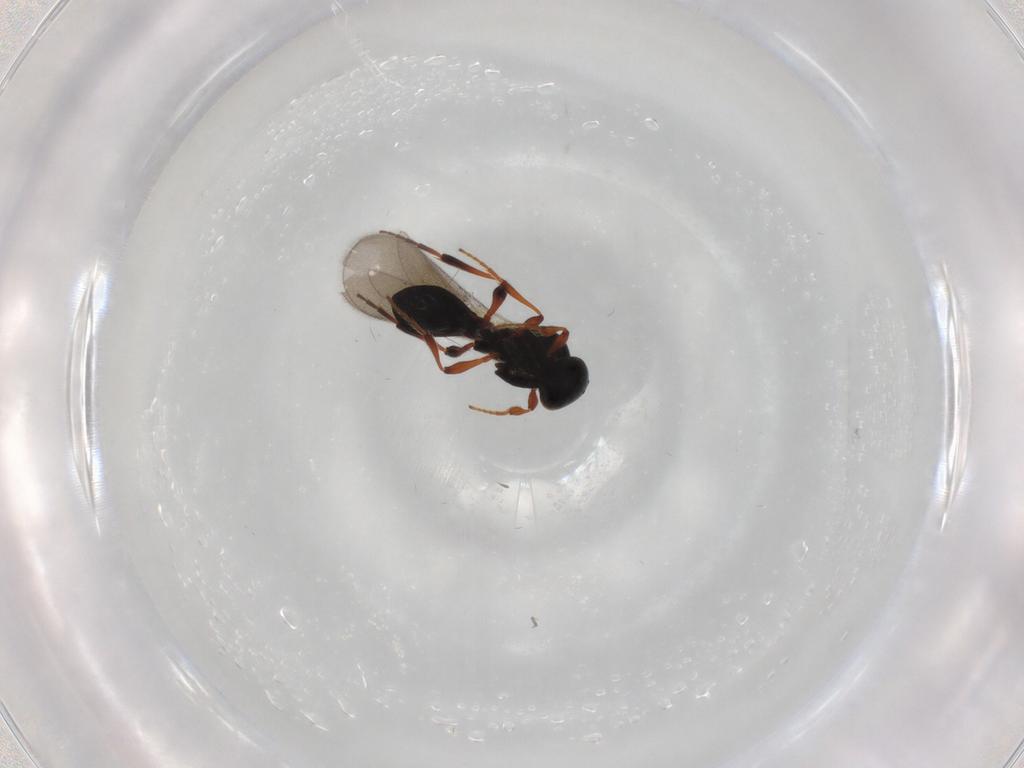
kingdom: Animalia
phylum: Arthropoda
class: Insecta
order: Hymenoptera
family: Platygastridae
